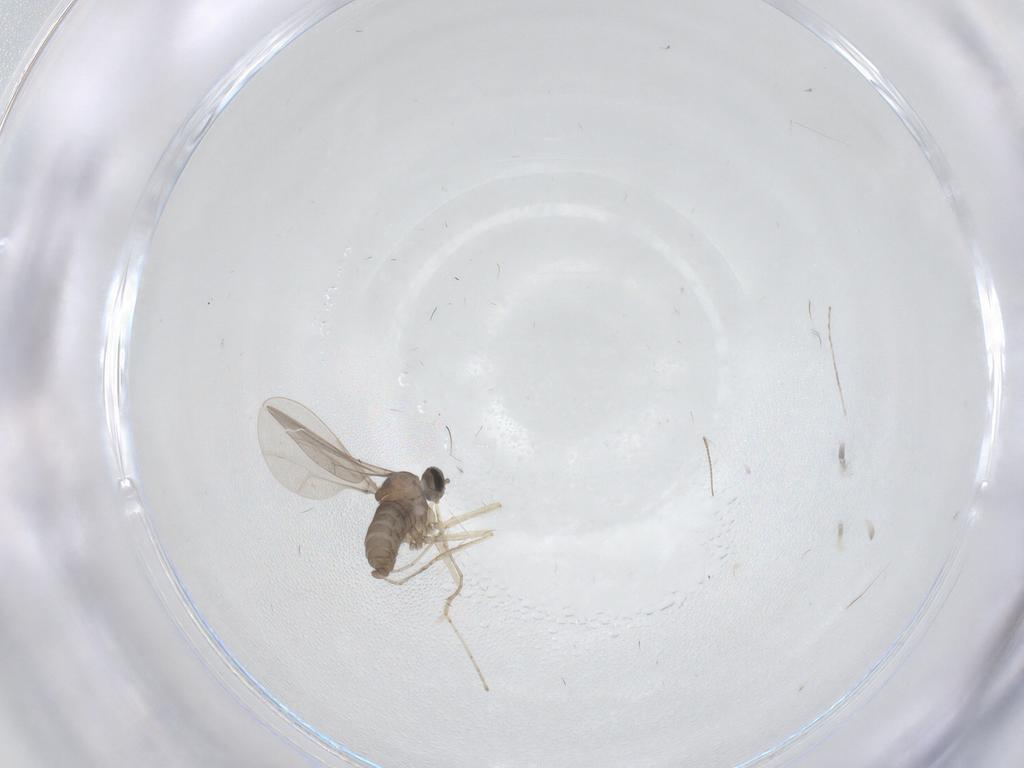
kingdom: Animalia
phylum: Arthropoda
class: Insecta
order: Diptera
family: Cecidomyiidae
